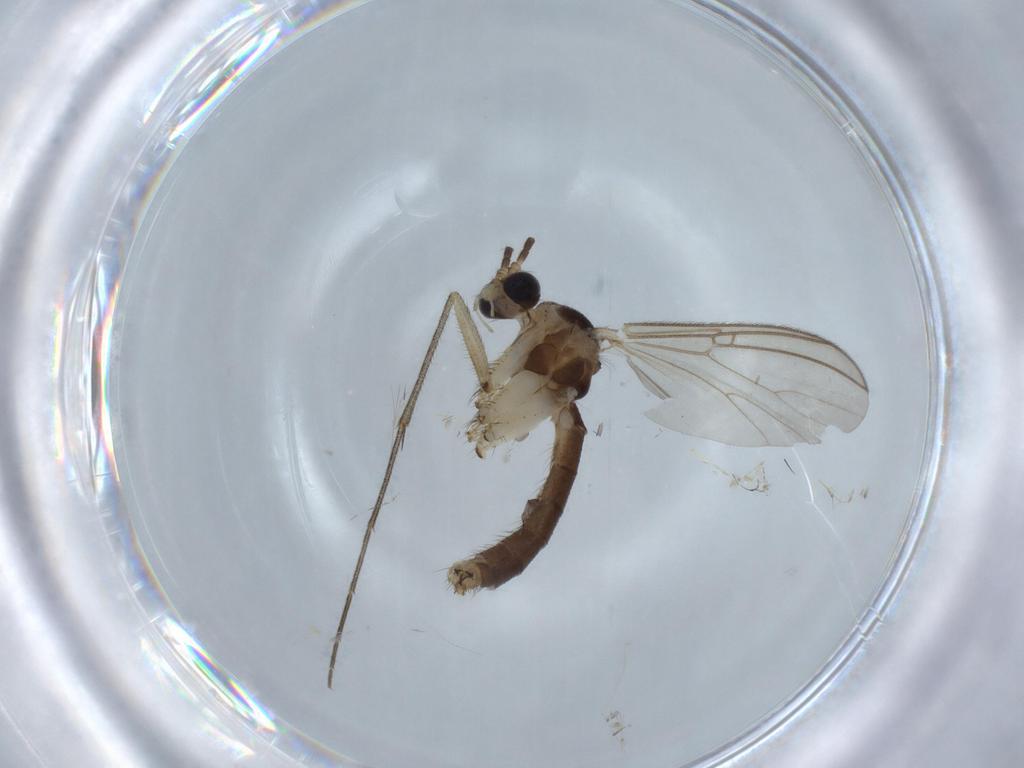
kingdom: Animalia
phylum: Arthropoda
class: Insecta
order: Diptera
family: Mycetophilidae
